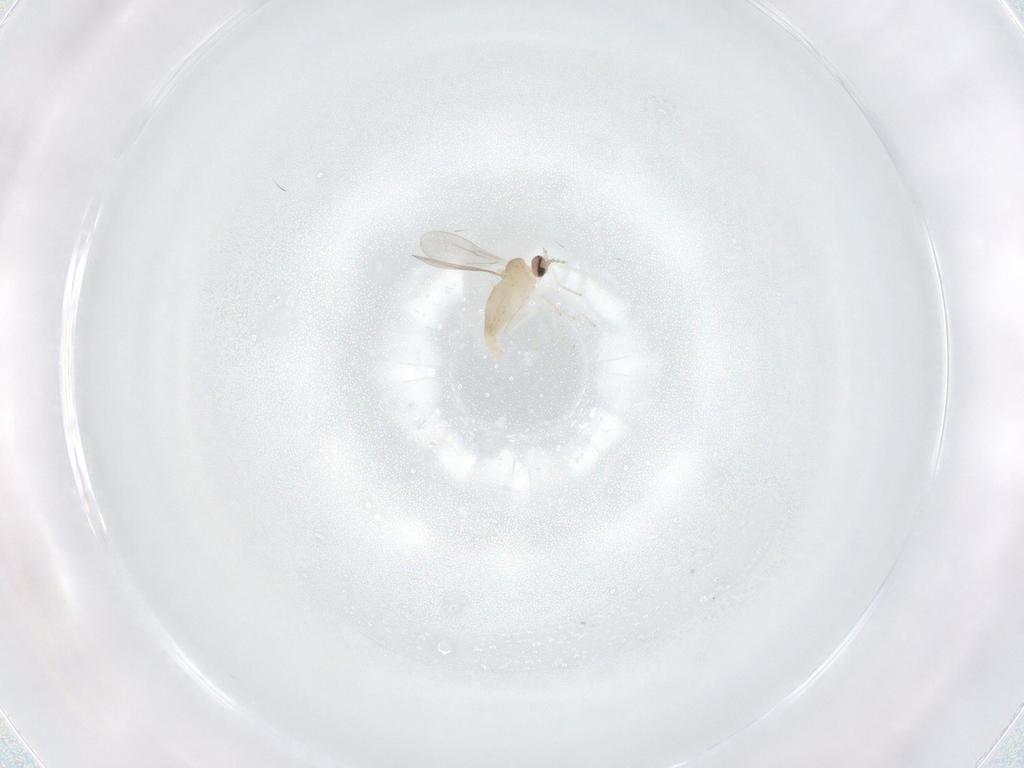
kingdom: Animalia
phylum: Arthropoda
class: Insecta
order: Diptera
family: Cecidomyiidae
